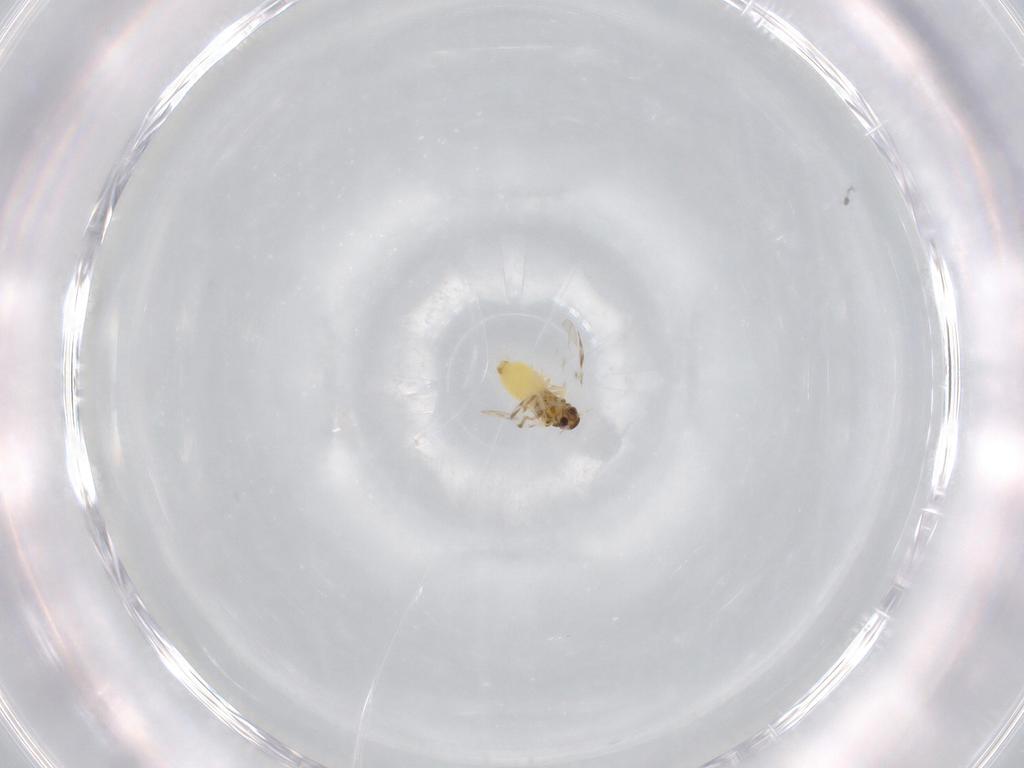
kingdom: Animalia
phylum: Arthropoda
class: Insecta
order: Hemiptera
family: Aleyrodidae
